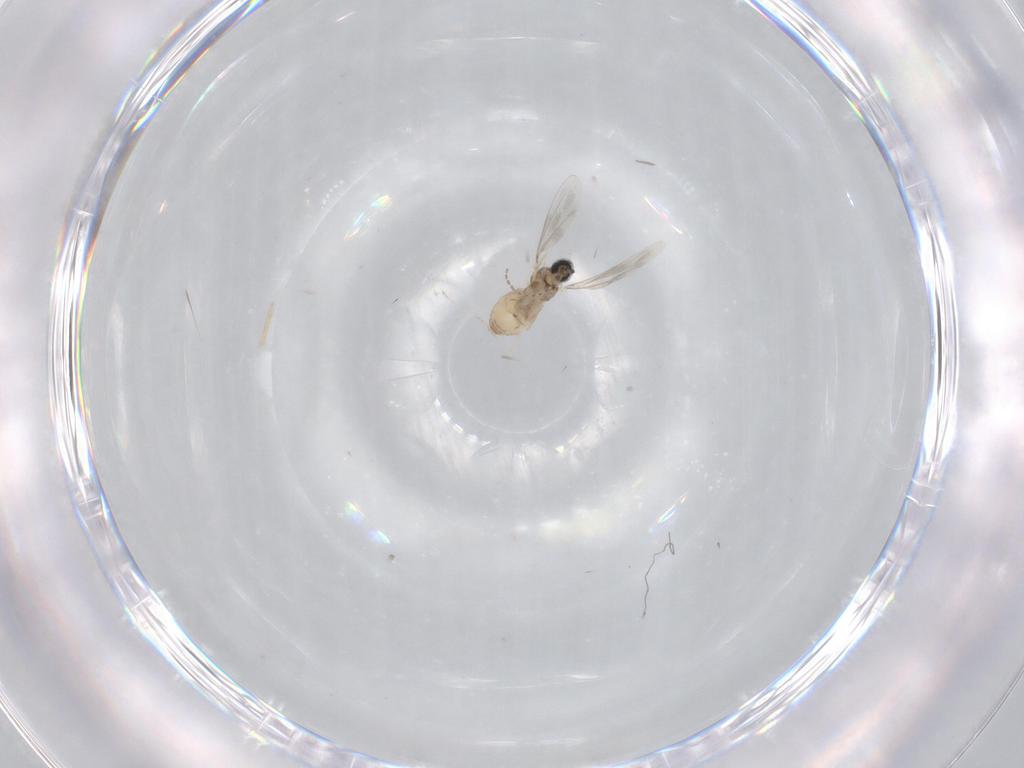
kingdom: Animalia
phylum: Arthropoda
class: Insecta
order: Diptera
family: Cecidomyiidae
